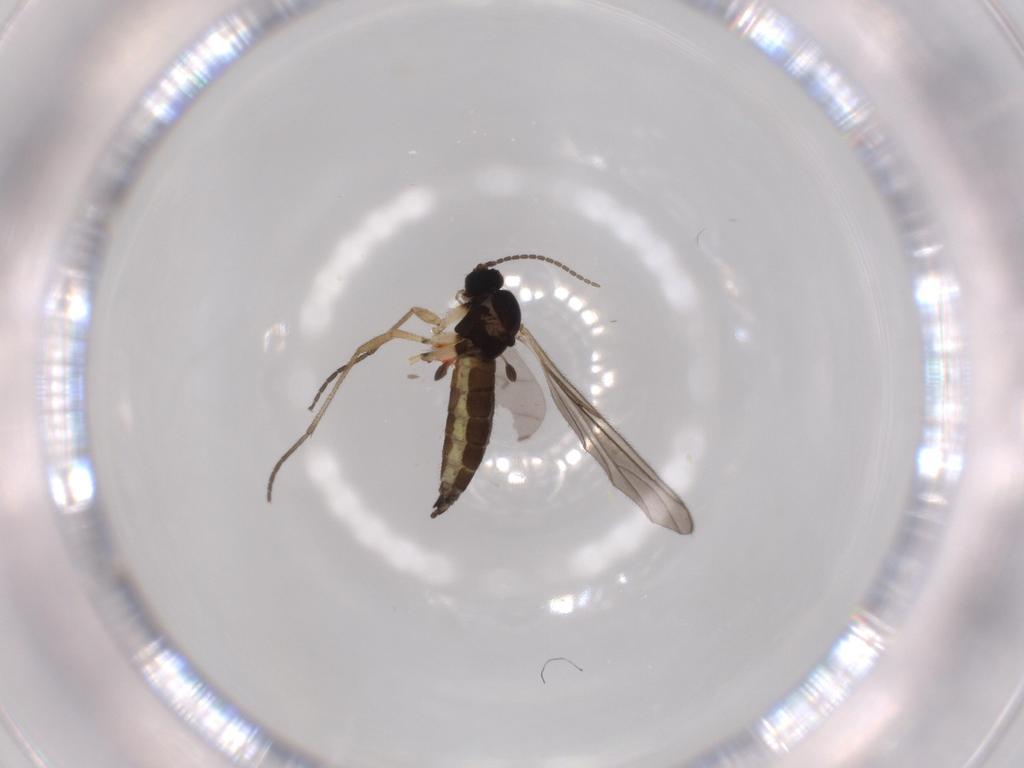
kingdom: Animalia
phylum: Arthropoda
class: Insecta
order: Diptera
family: Sciaridae
